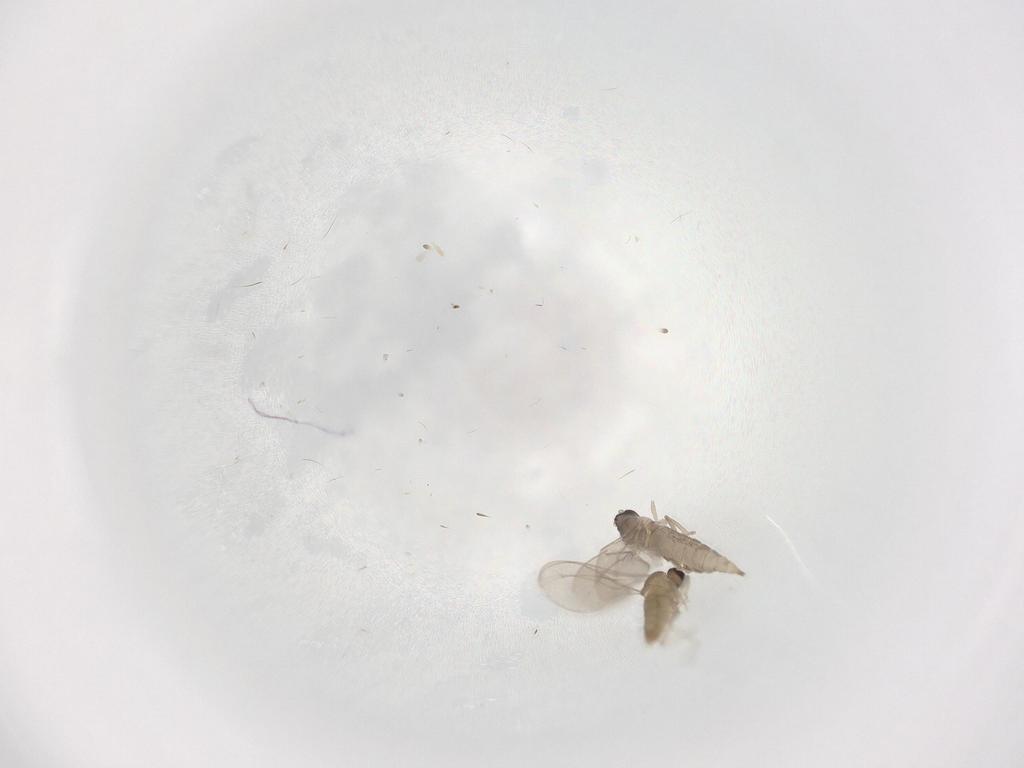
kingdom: Animalia
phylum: Arthropoda
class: Insecta
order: Diptera
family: Cecidomyiidae
